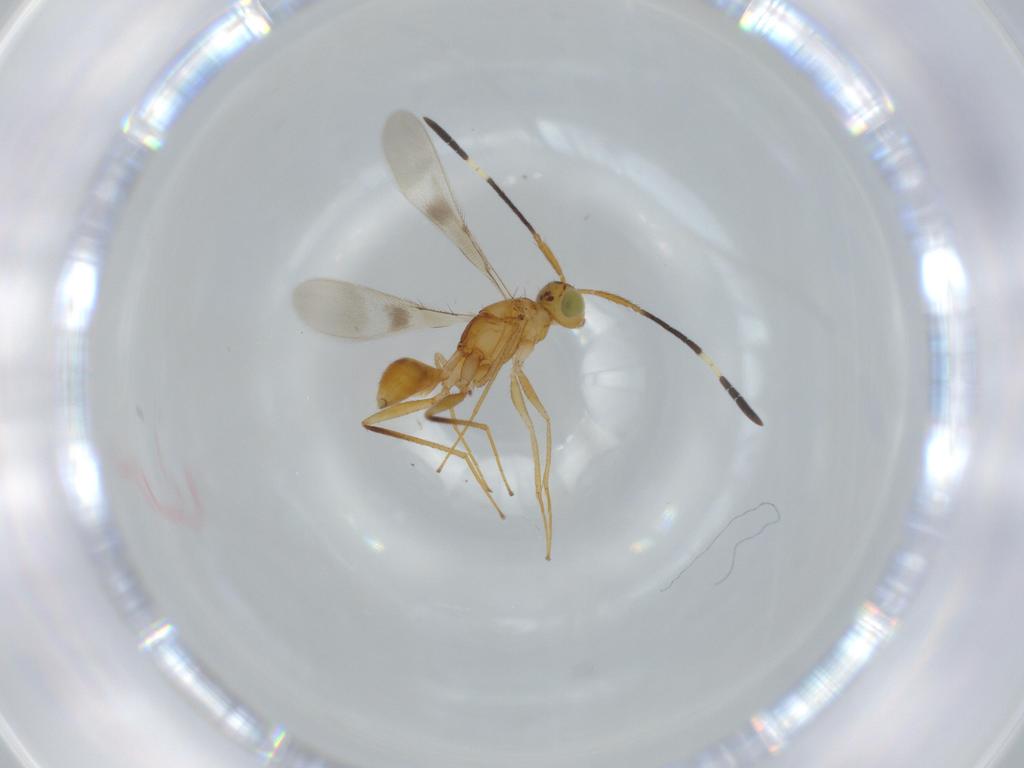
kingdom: Animalia
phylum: Arthropoda
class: Insecta
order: Hymenoptera
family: Mymaridae
